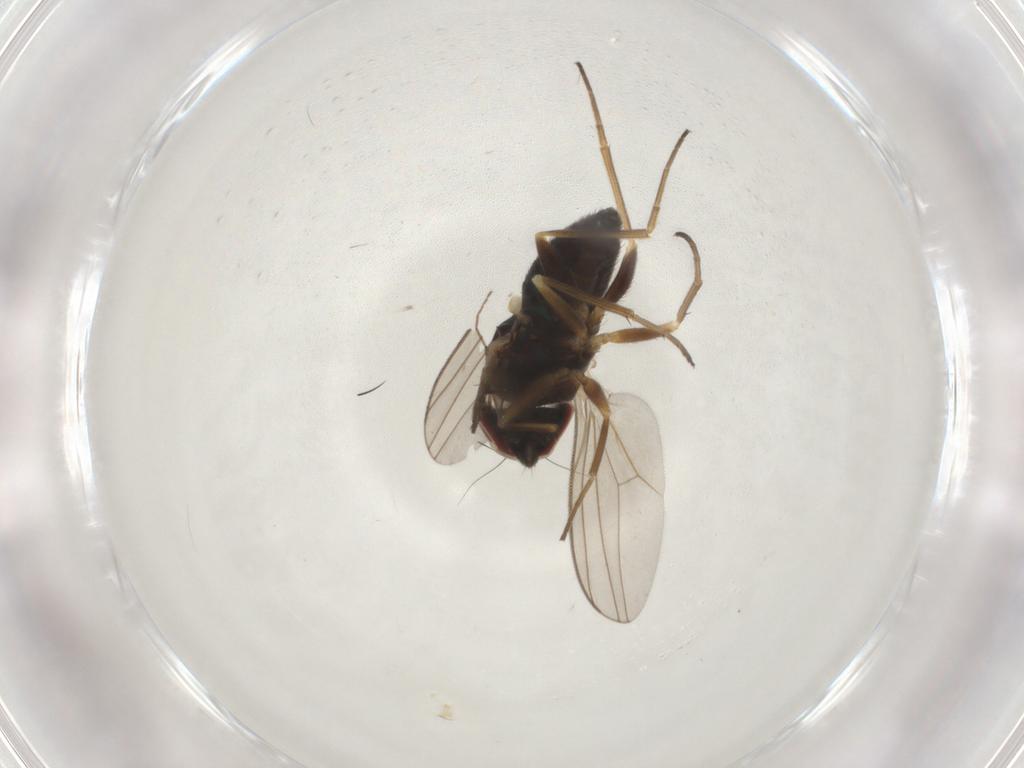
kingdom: Animalia
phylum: Arthropoda
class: Insecta
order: Diptera
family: Dolichopodidae
